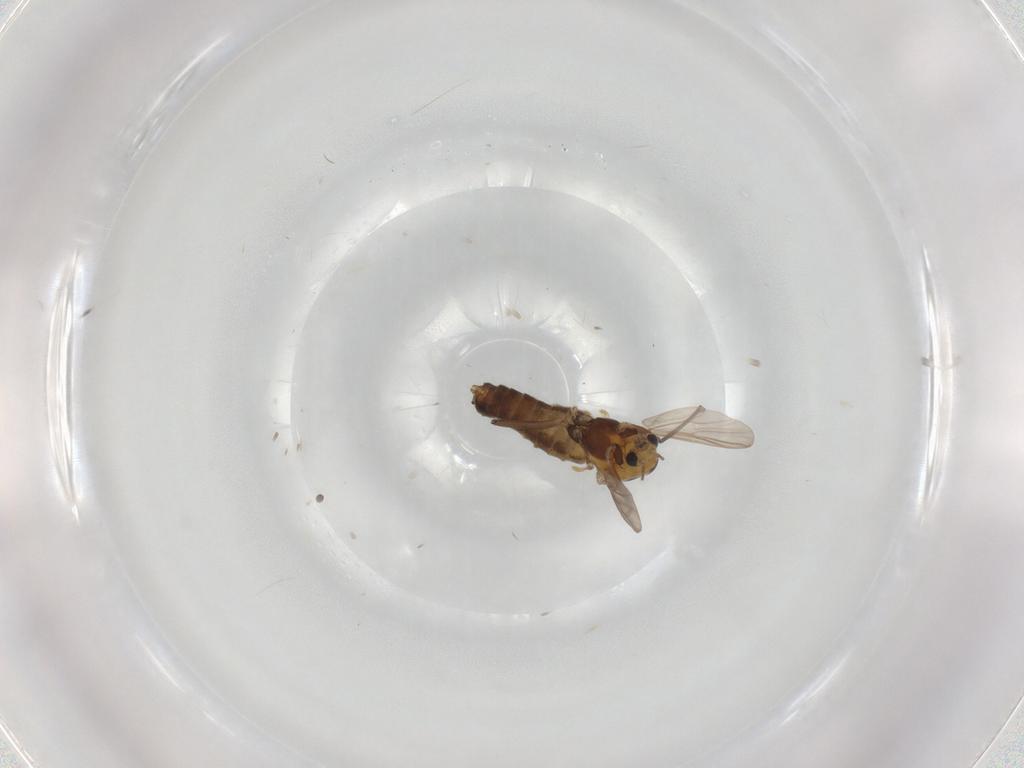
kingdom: Animalia
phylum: Arthropoda
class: Insecta
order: Diptera
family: Chironomidae
